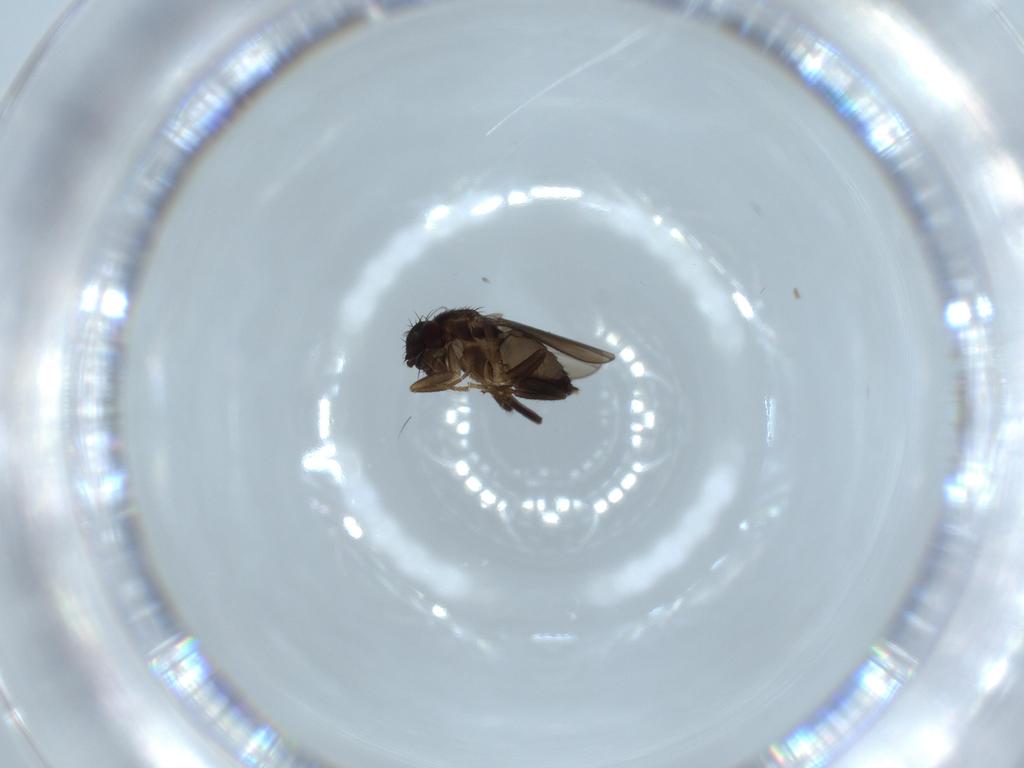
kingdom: Animalia
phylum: Arthropoda
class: Insecta
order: Diptera
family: Sphaeroceridae
